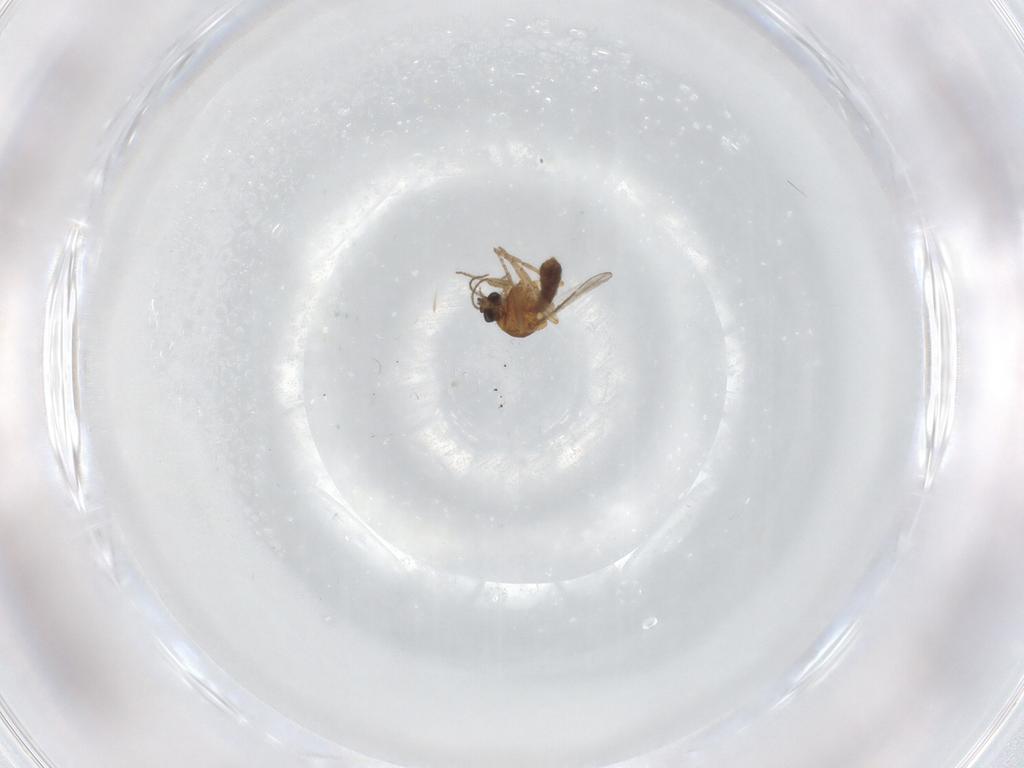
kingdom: Animalia
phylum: Arthropoda
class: Insecta
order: Diptera
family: Ceratopogonidae
